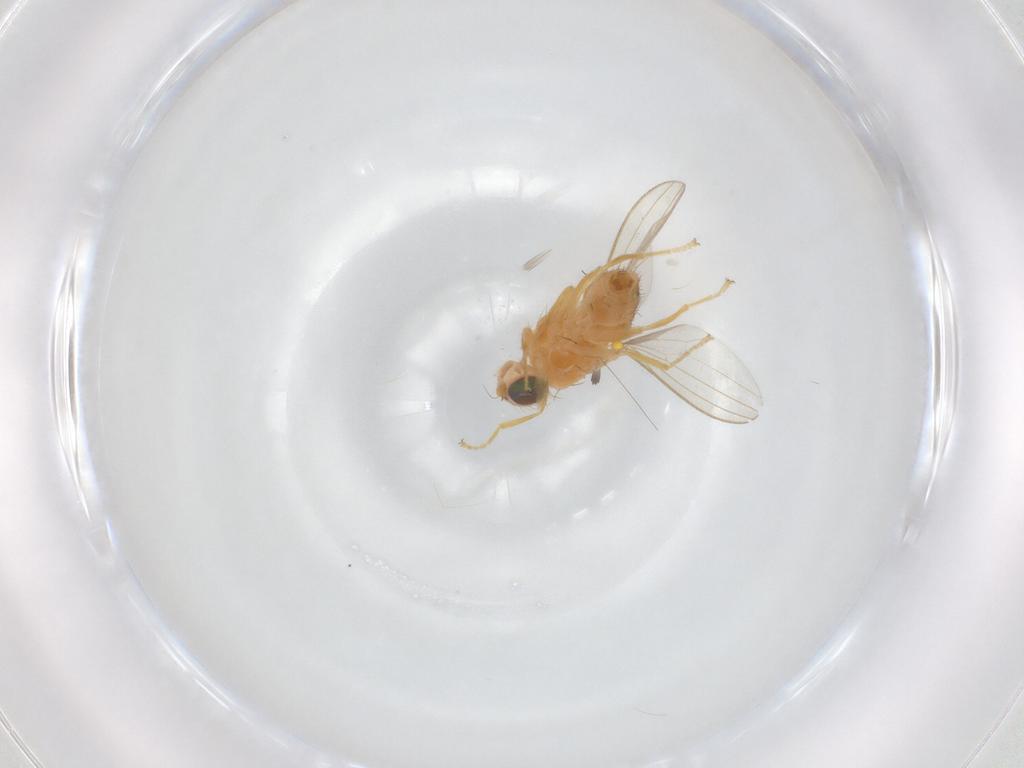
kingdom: Animalia
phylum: Arthropoda
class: Insecta
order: Diptera
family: Chyromyidae
